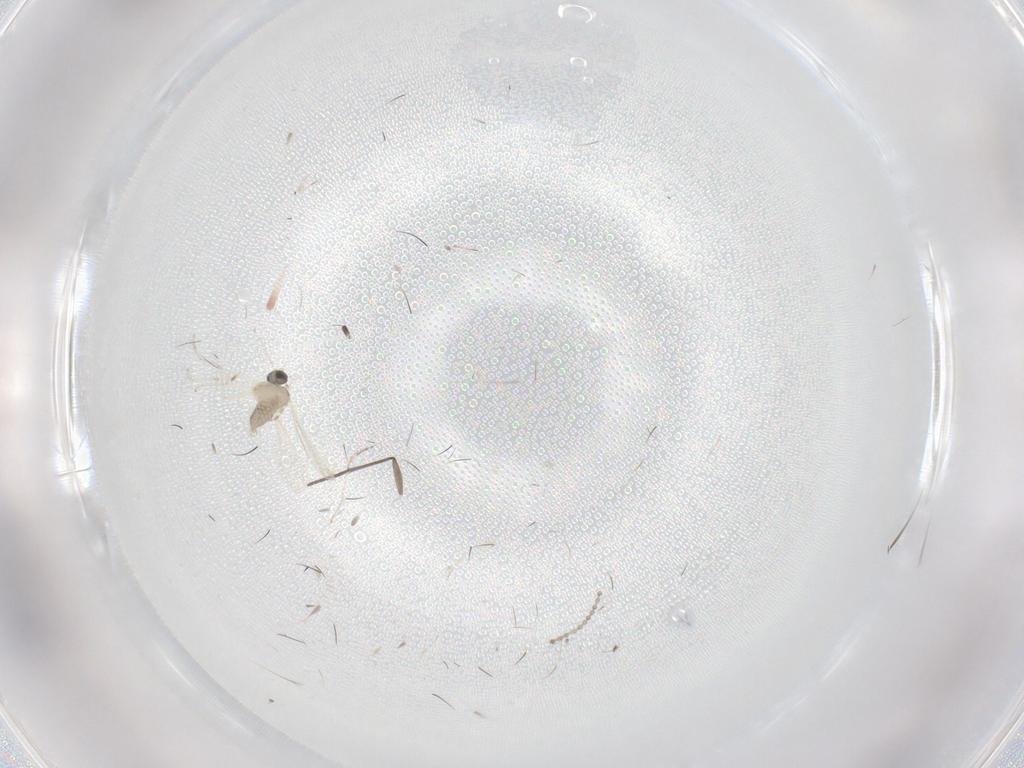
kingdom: Animalia
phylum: Arthropoda
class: Insecta
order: Diptera
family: Cecidomyiidae
